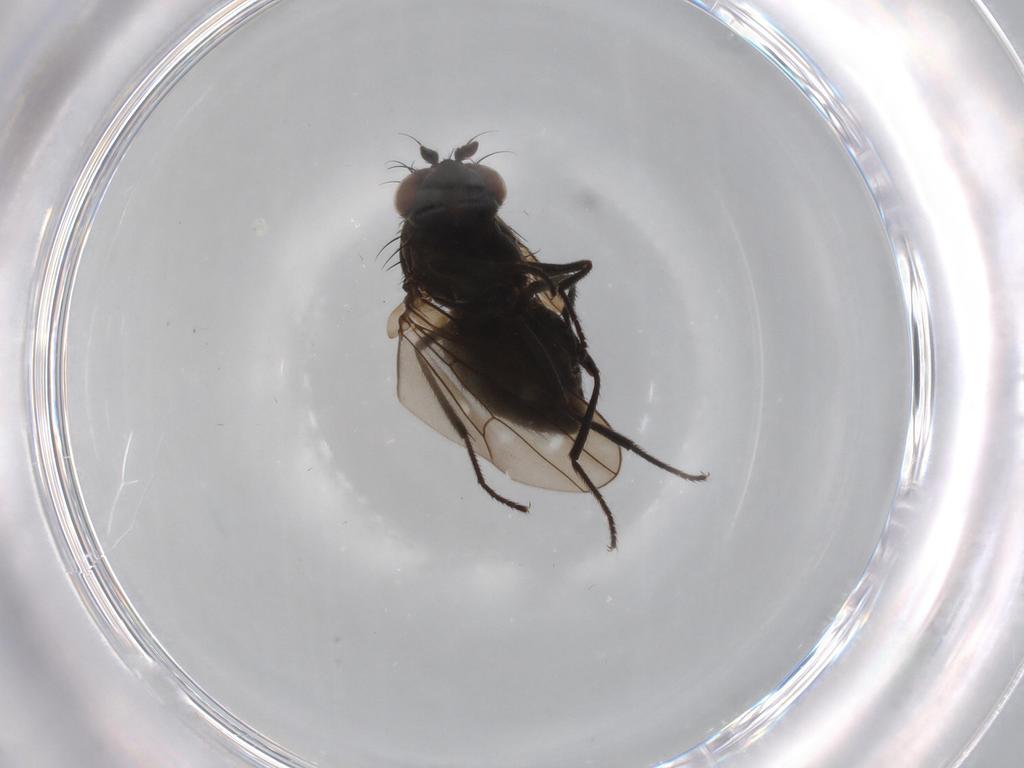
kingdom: Animalia
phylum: Arthropoda
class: Insecta
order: Diptera
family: Ephydridae
